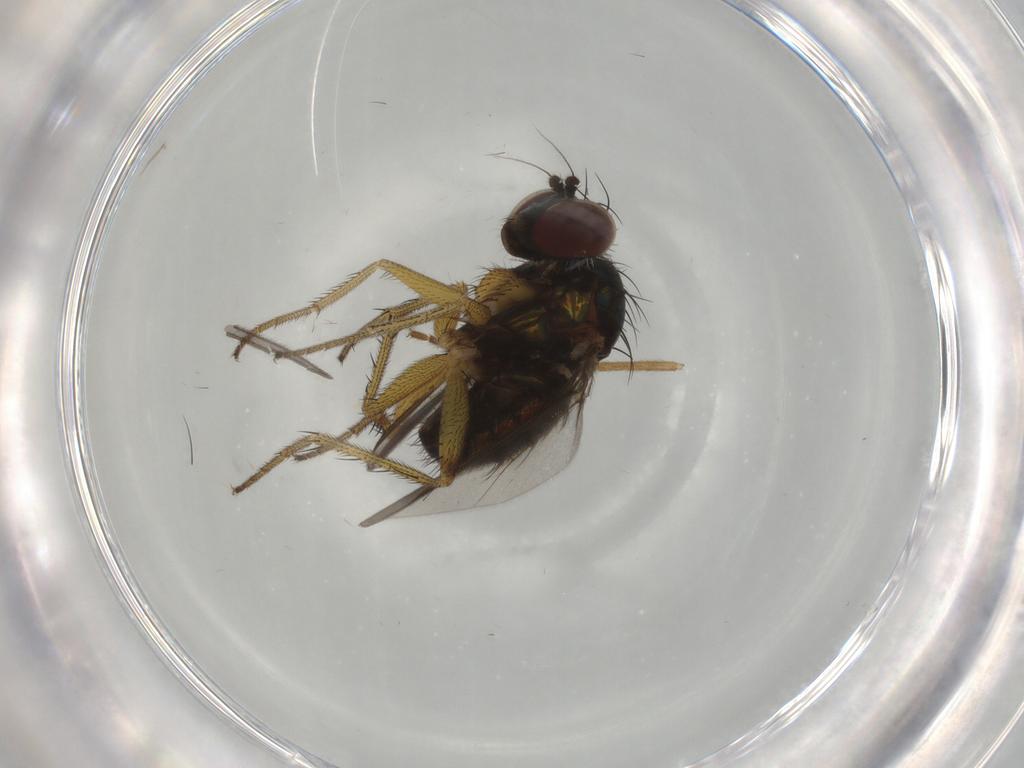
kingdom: Animalia
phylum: Arthropoda
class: Insecta
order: Diptera
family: Dolichopodidae
